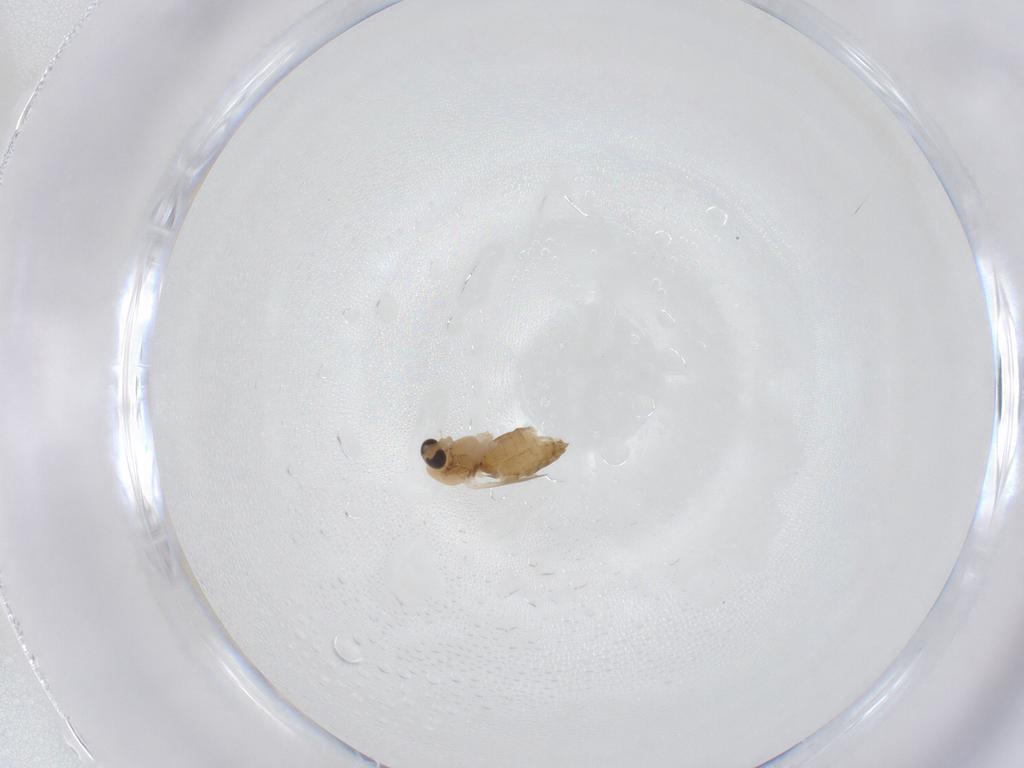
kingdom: Animalia
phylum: Arthropoda
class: Insecta
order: Diptera
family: Chironomidae
